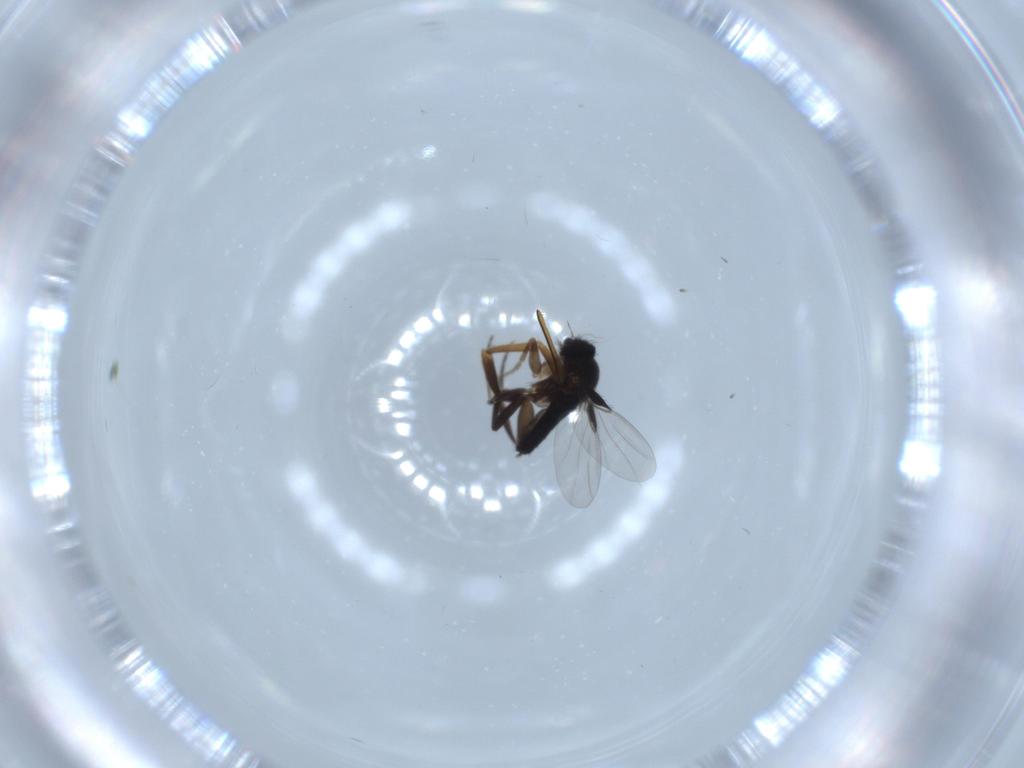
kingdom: Animalia
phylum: Arthropoda
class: Insecta
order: Diptera
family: Phoridae
